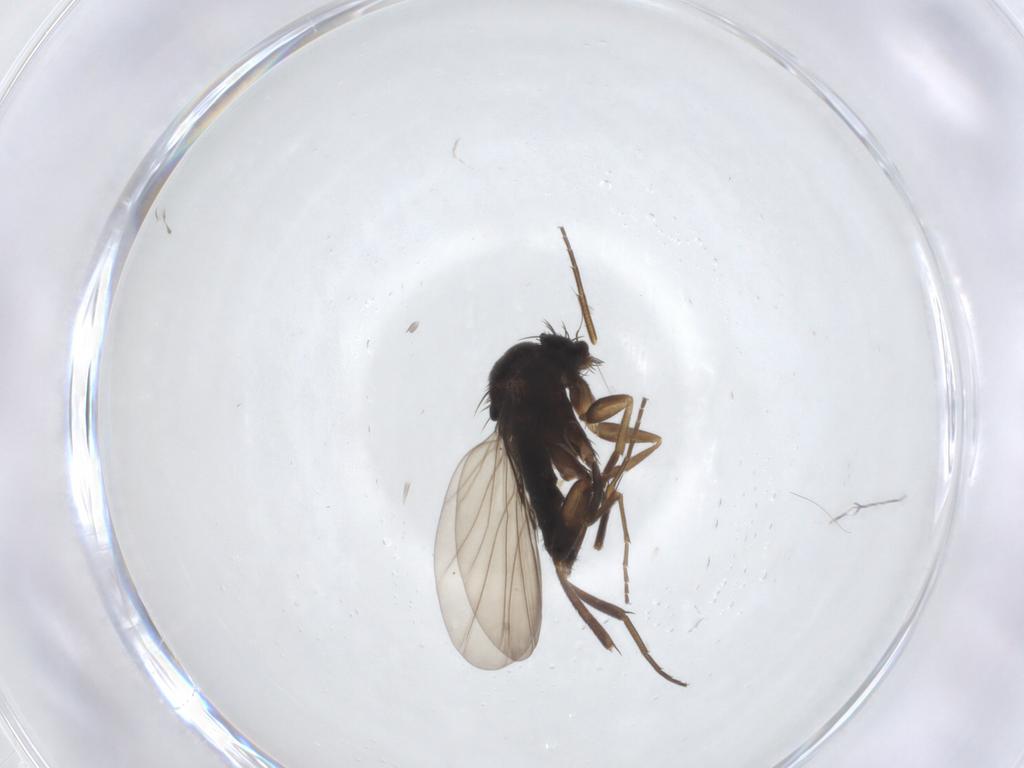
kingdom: Animalia
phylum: Arthropoda
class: Insecta
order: Diptera
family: Phoridae
